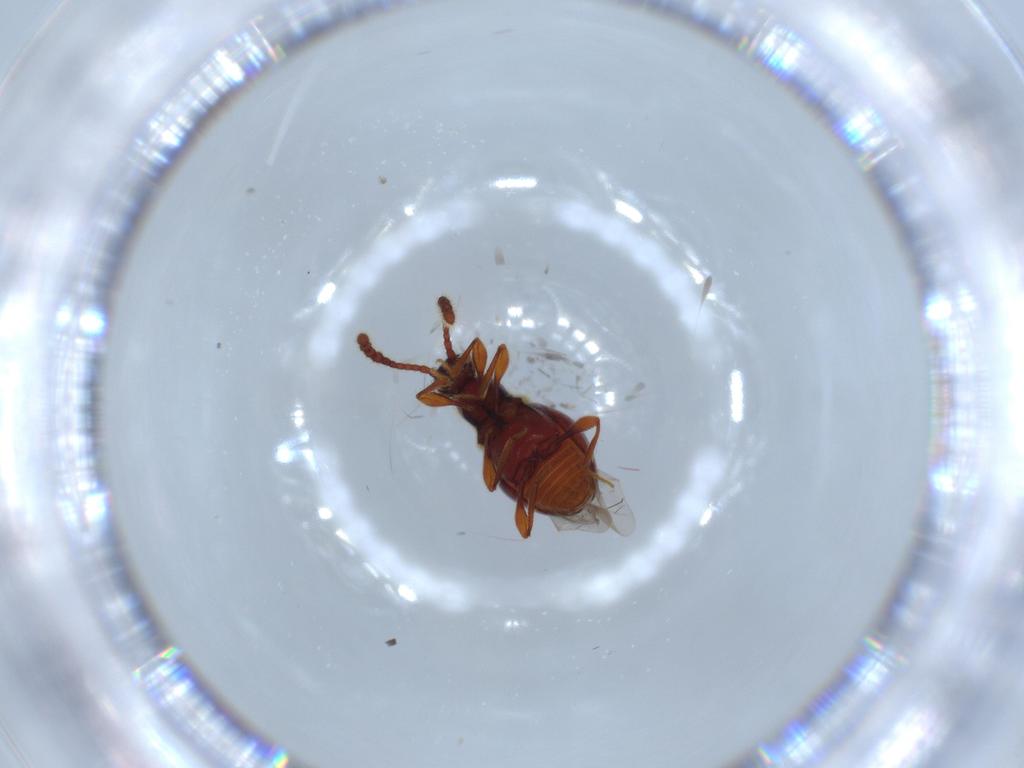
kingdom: Animalia
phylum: Arthropoda
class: Insecta
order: Coleoptera
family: Staphylinidae
